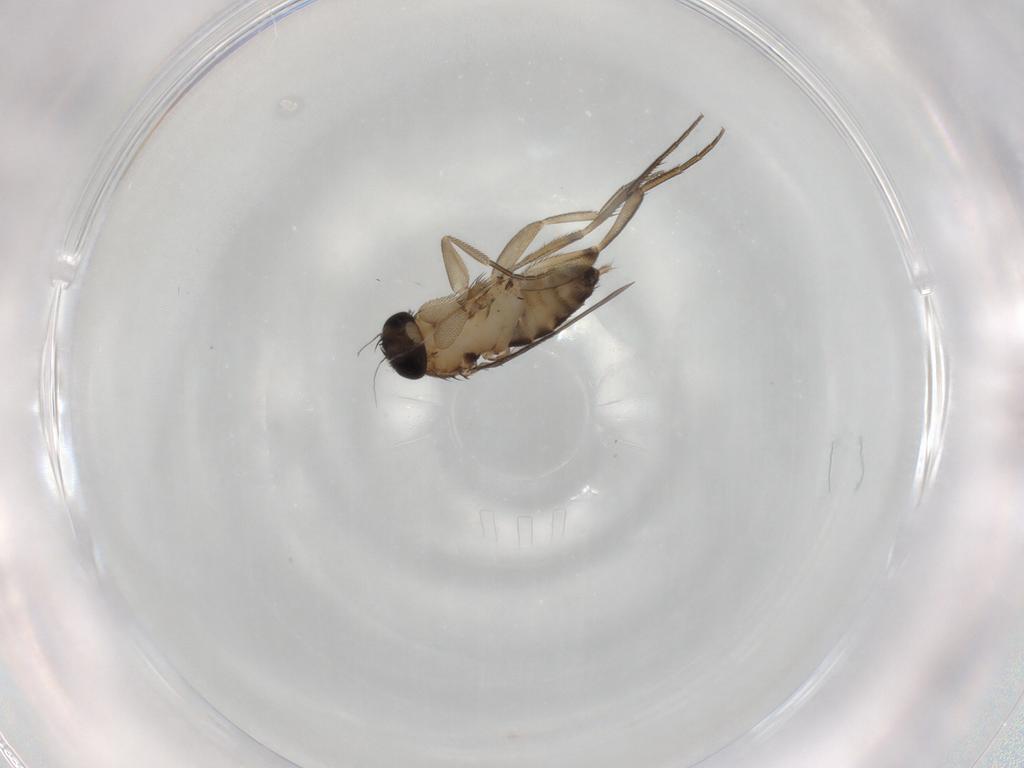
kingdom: Animalia
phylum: Arthropoda
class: Insecta
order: Diptera
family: Phoridae
